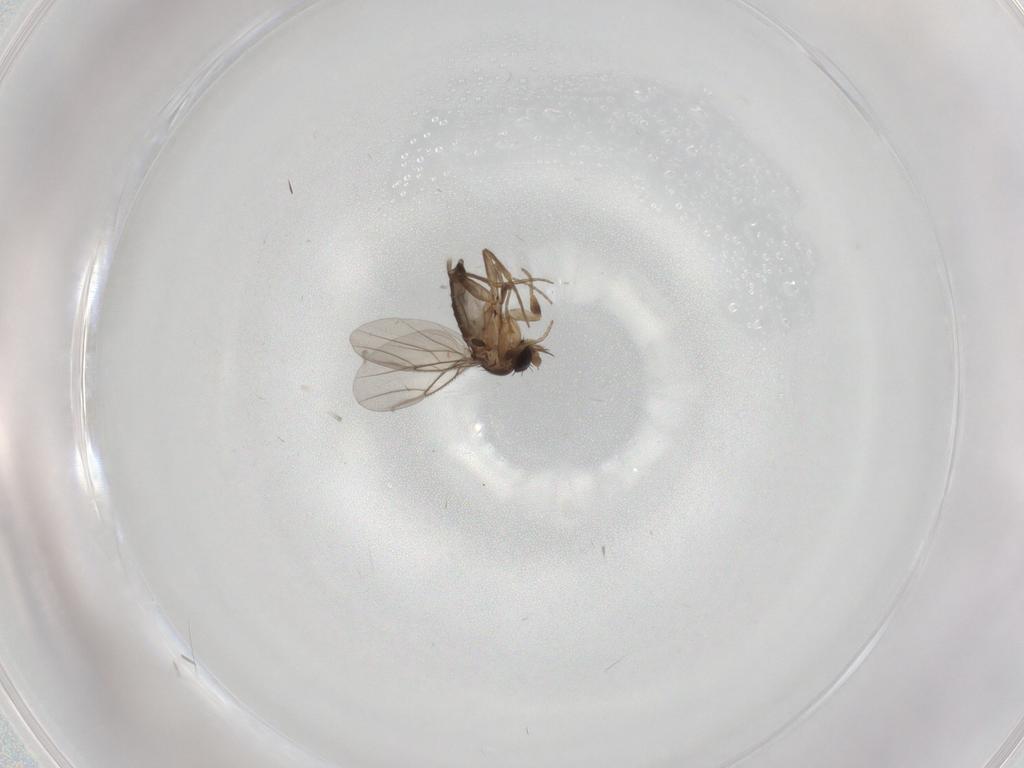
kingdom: Animalia
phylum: Arthropoda
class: Insecta
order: Diptera
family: Phoridae
